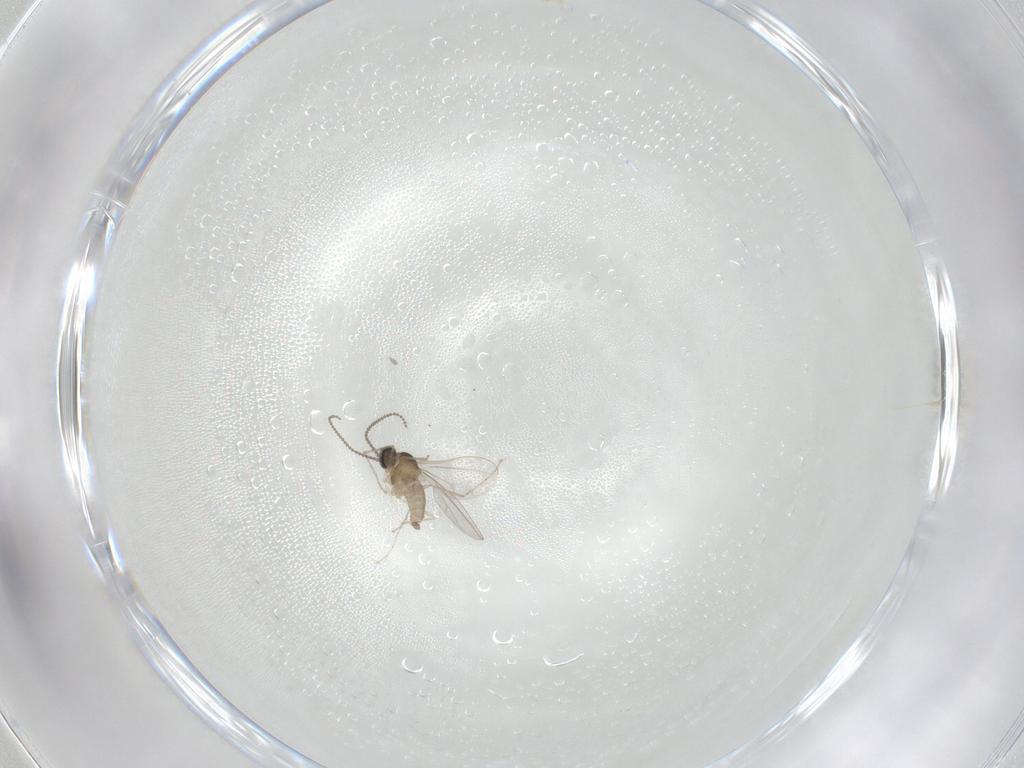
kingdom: Animalia
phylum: Arthropoda
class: Insecta
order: Diptera
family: Cecidomyiidae
